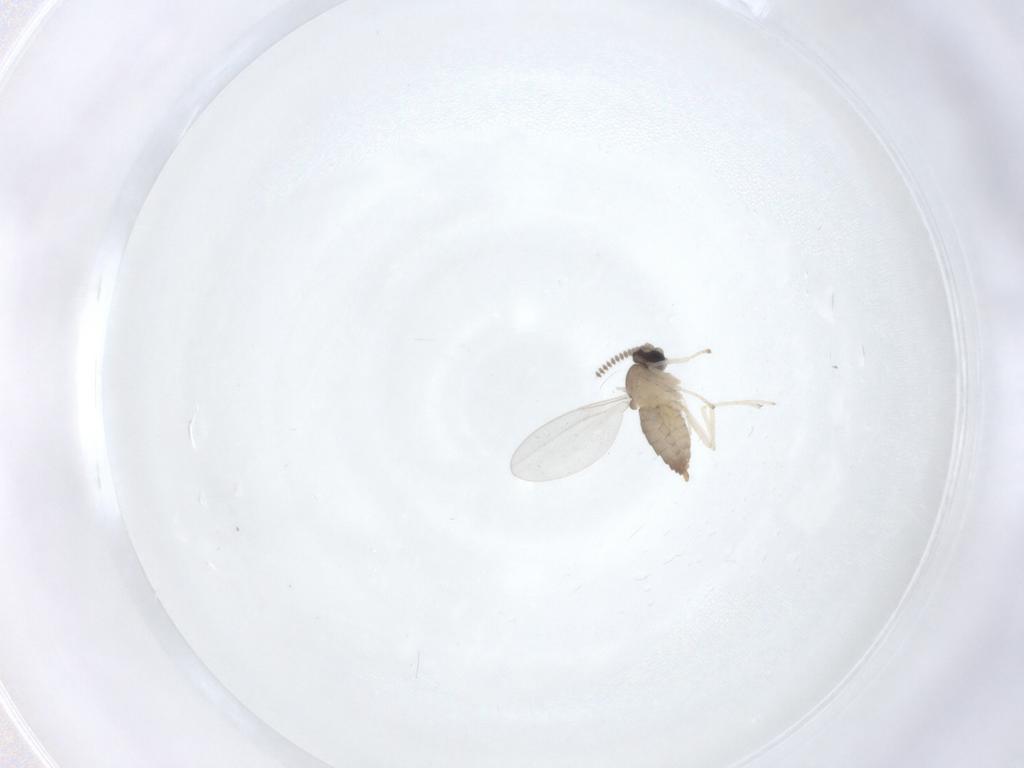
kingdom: Animalia
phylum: Arthropoda
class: Insecta
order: Diptera
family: Cecidomyiidae
